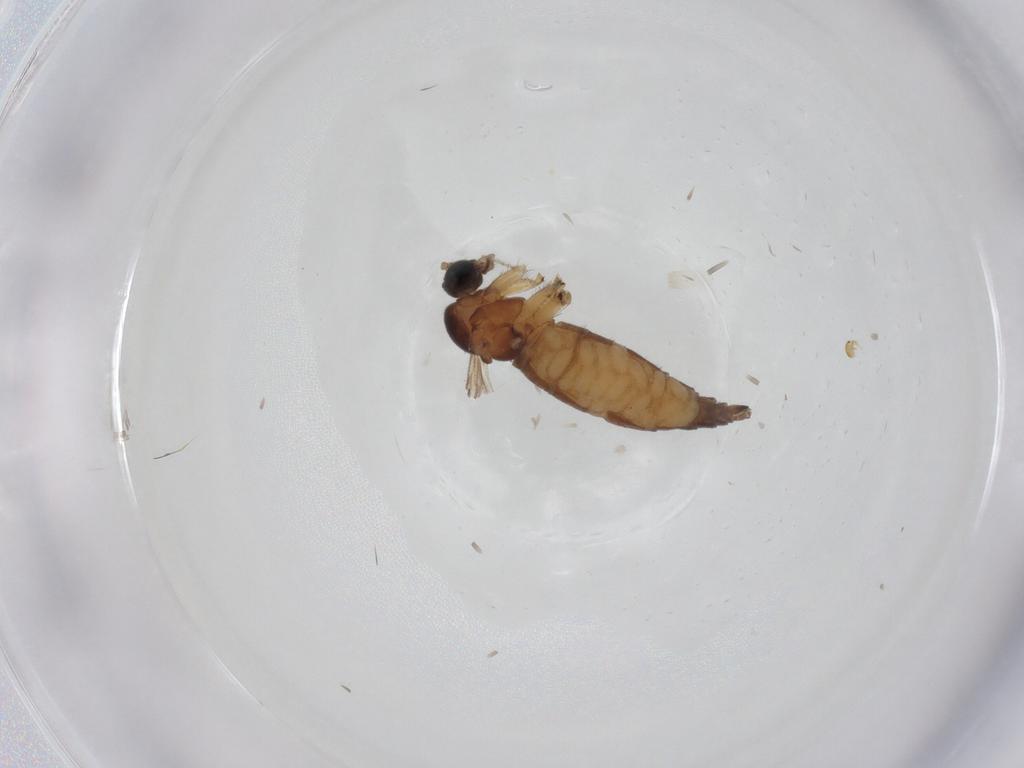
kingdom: Animalia
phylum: Arthropoda
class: Insecta
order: Diptera
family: Sciaridae
